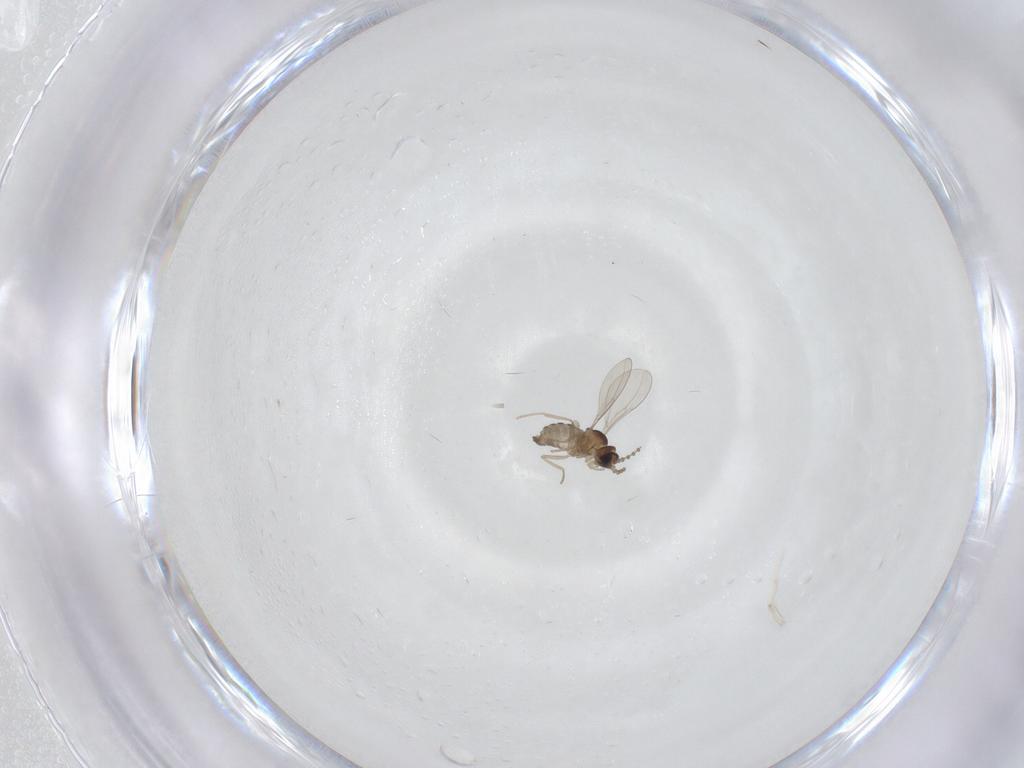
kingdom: Animalia
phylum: Arthropoda
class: Insecta
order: Diptera
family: Cecidomyiidae
